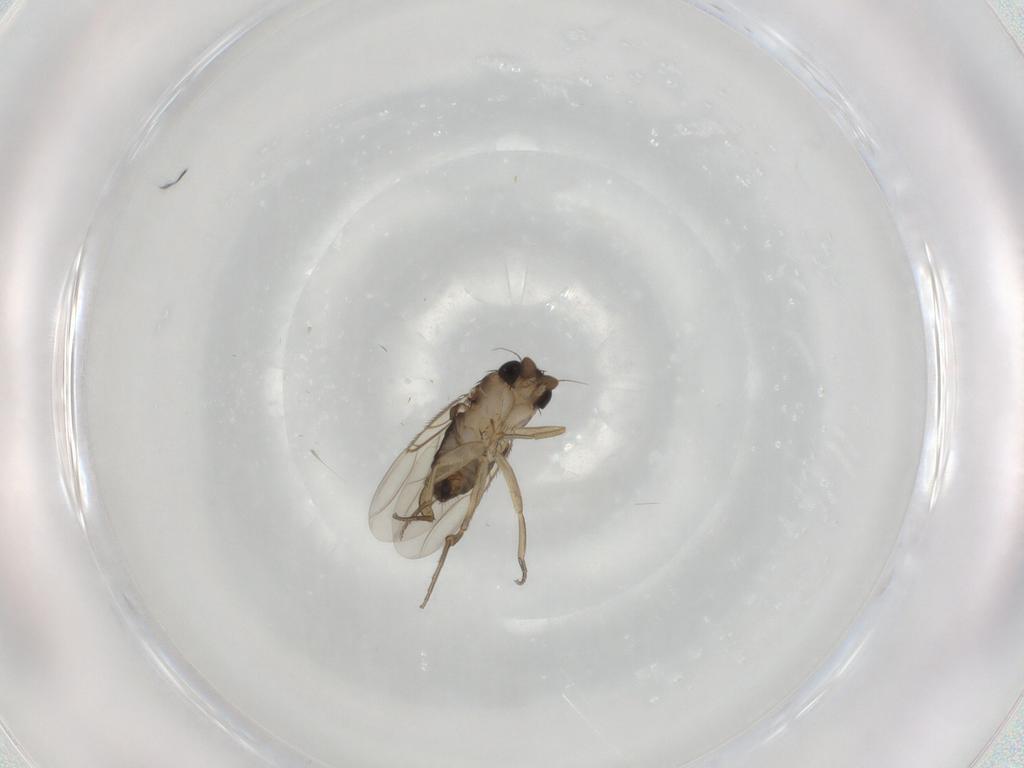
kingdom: Animalia
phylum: Arthropoda
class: Insecta
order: Diptera
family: Phoridae
